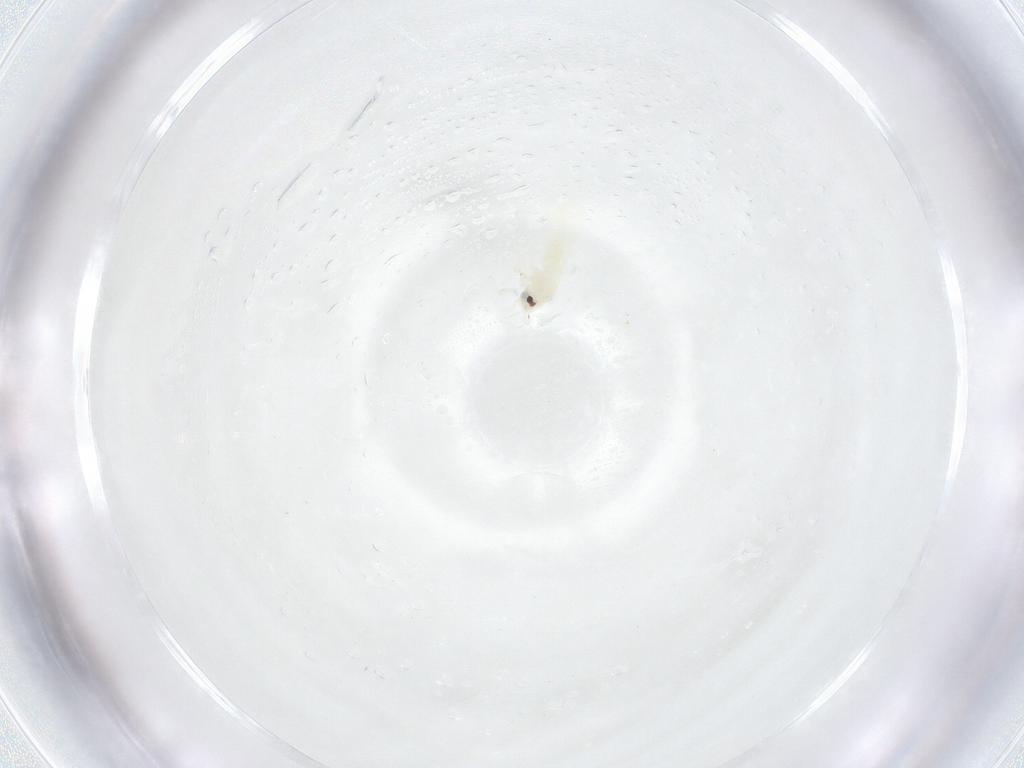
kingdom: Animalia
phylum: Arthropoda
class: Insecta
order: Hemiptera
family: Aleyrodidae
